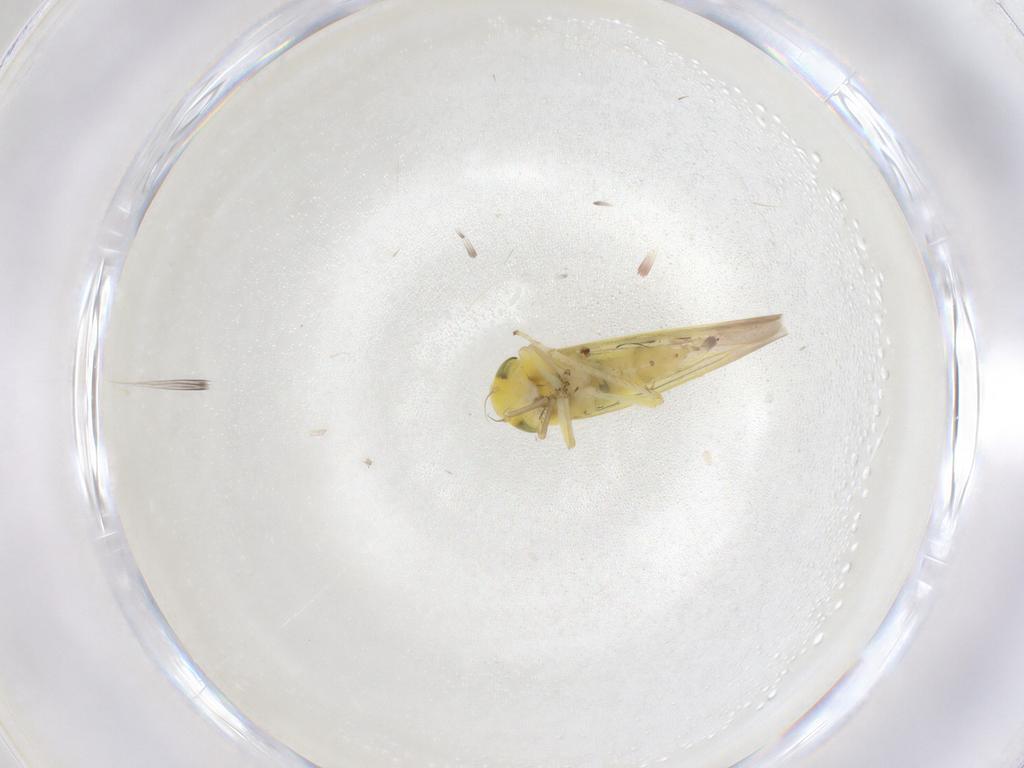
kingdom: Animalia
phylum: Arthropoda
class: Insecta
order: Hemiptera
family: Cicadellidae
